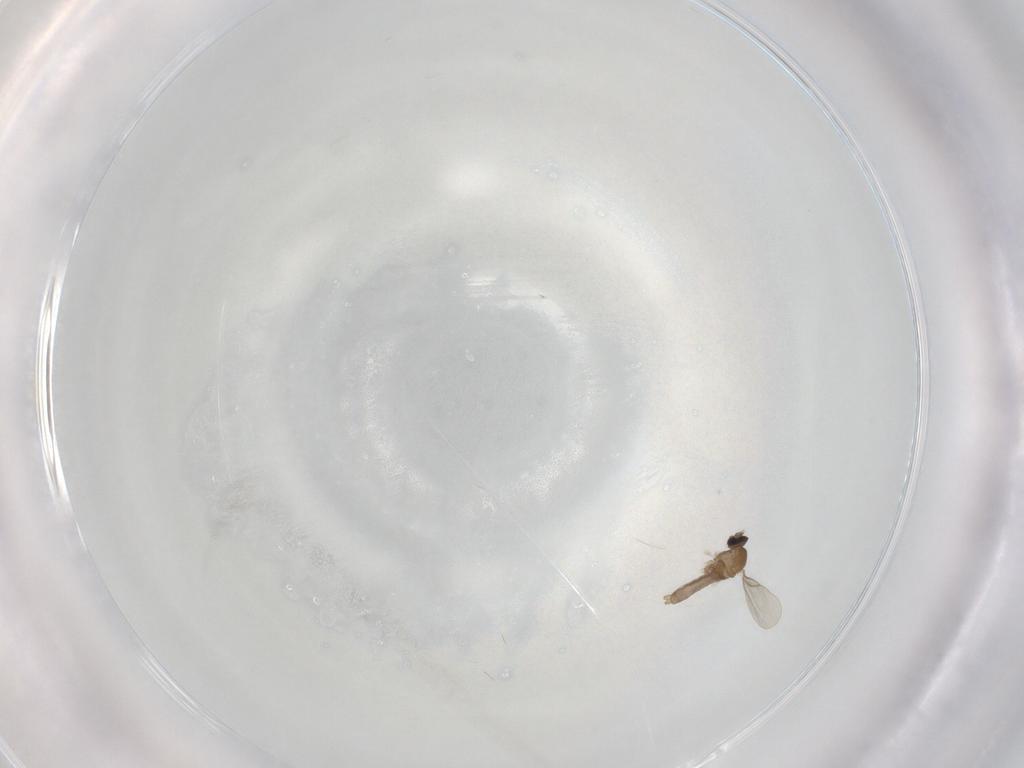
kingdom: Animalia
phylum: Arthropoda
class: Insecta
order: Diptera
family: Cecidomyiidae
